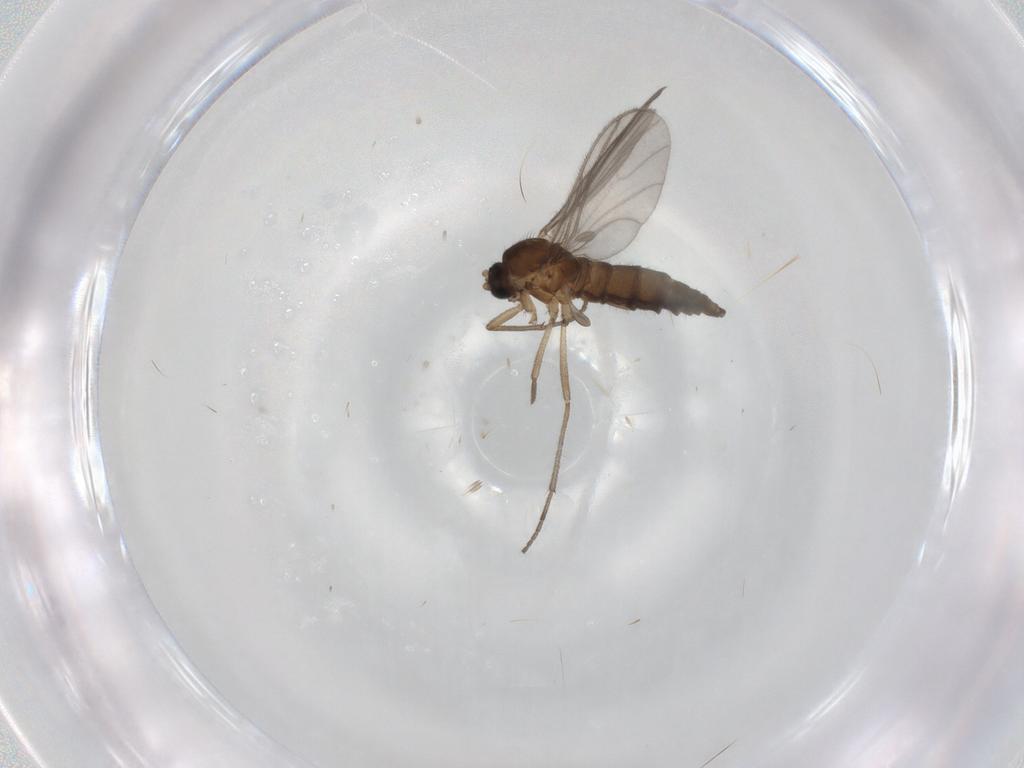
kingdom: Animalia
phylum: Arthropoda
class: Insecta
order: Diptera
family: Sciaridae
